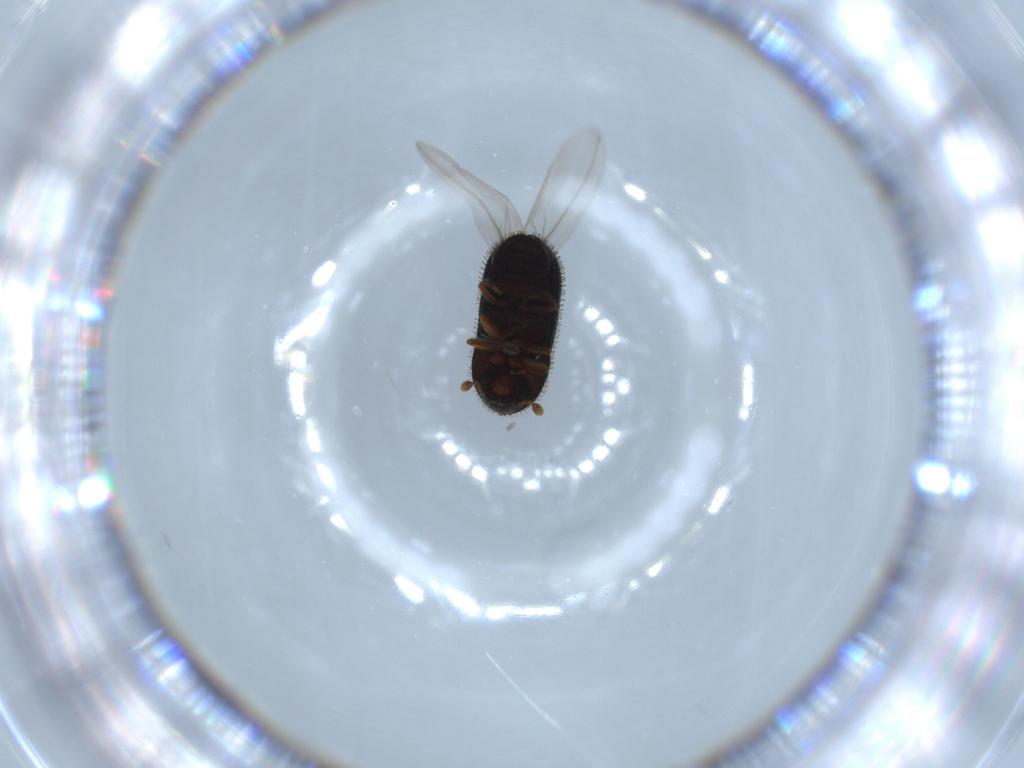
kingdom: Animalia
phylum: Arthropoda
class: Insecta
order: Coleoptera
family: Curculionidae
